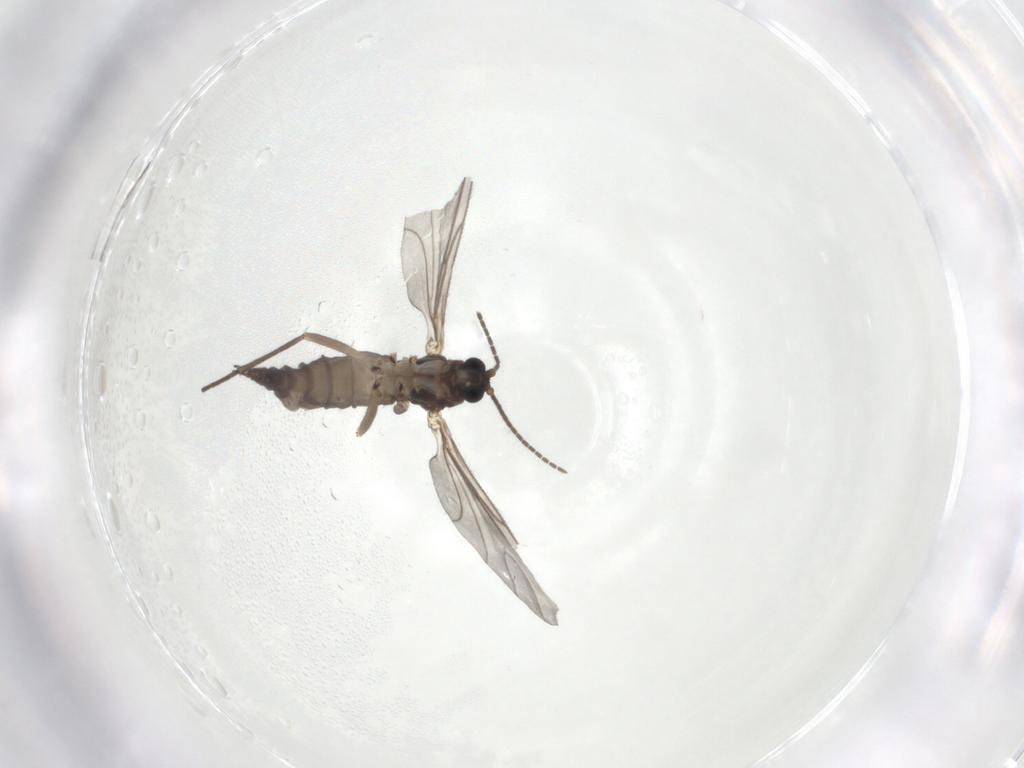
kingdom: Animalia
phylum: Arthropoda
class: Insecta
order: Diptera
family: Sciaridae
